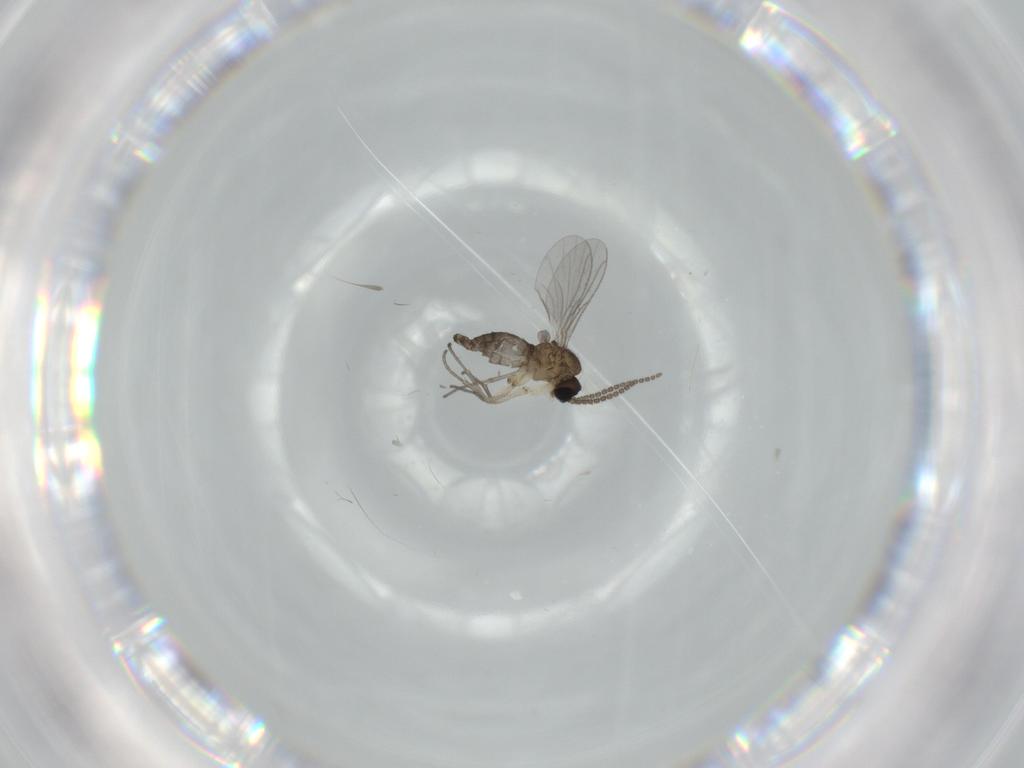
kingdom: Animalia
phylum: Arthropoda
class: Insecta
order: Diptera
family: Sciaridae
